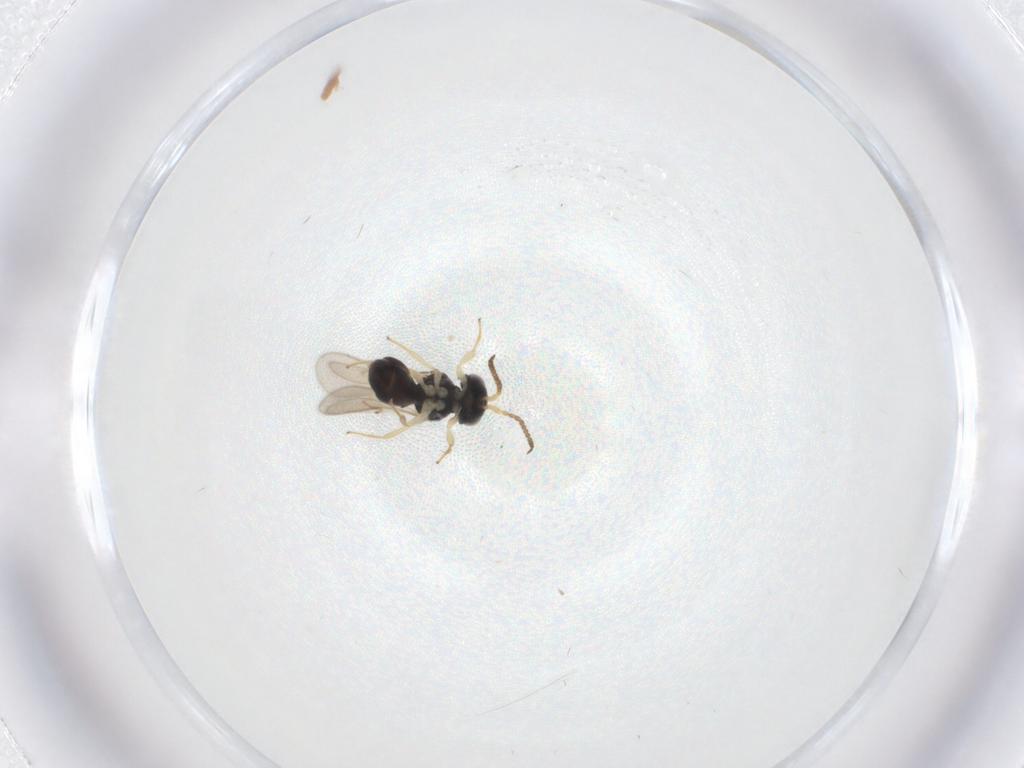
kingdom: Animalia
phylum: Arthropoda
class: Insecta
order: Hymenoptera
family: Scelionidae
